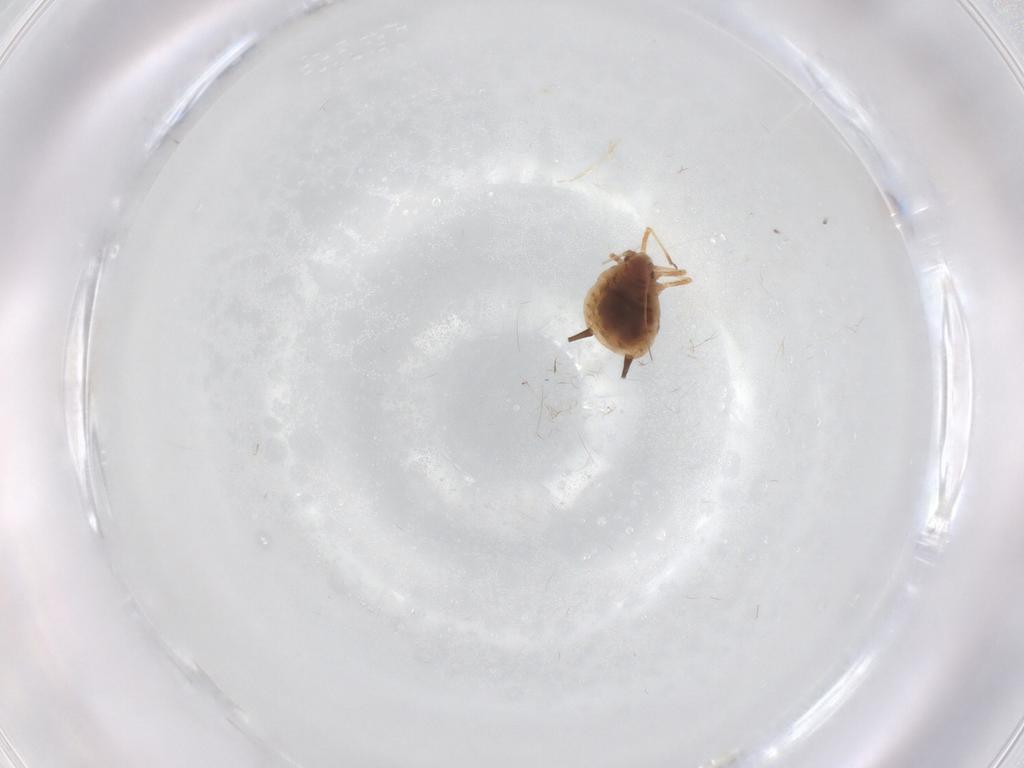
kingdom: Animalia
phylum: Arthropoda
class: Insecta
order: Hemiptera
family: Aphididae
